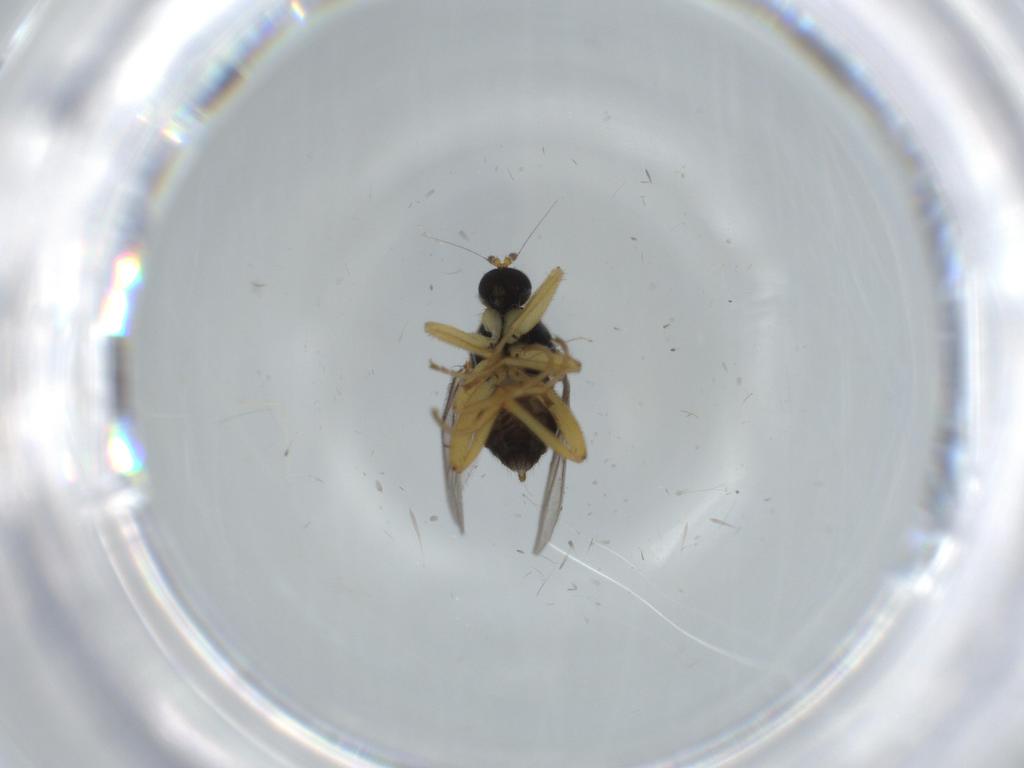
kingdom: Animalia
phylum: Arthropoda
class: Insecta
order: Diptera
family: Hybotidae
